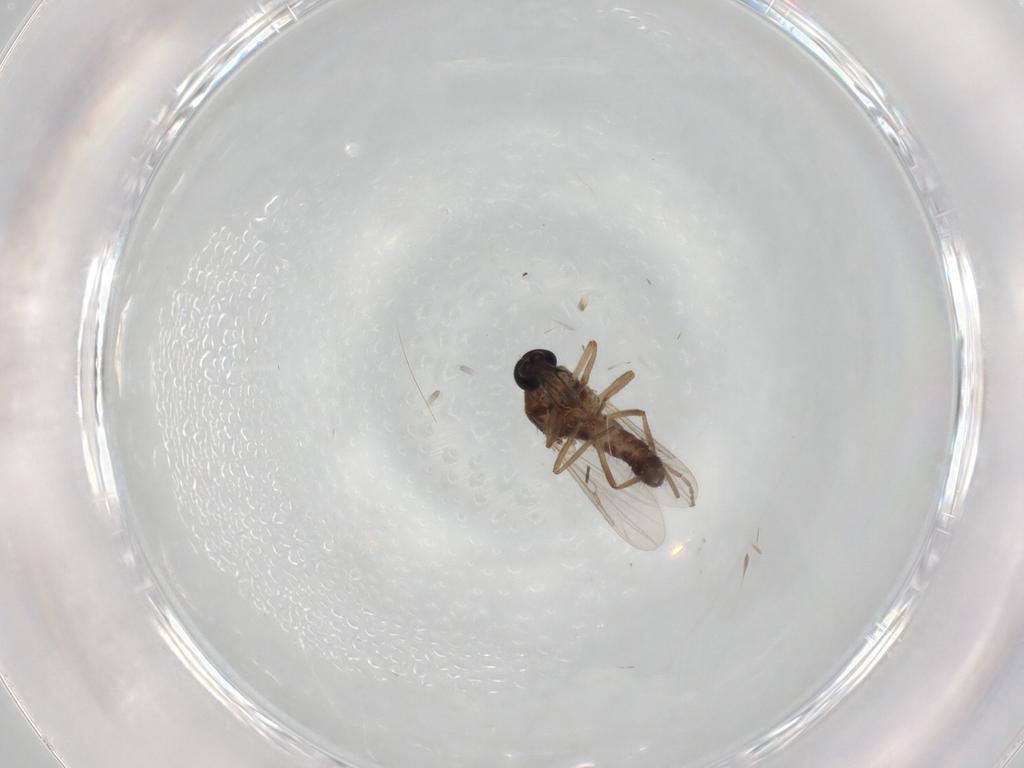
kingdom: Animalia
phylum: Arthropoda
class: Insecta
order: Diptera
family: Ceratopogonidae
